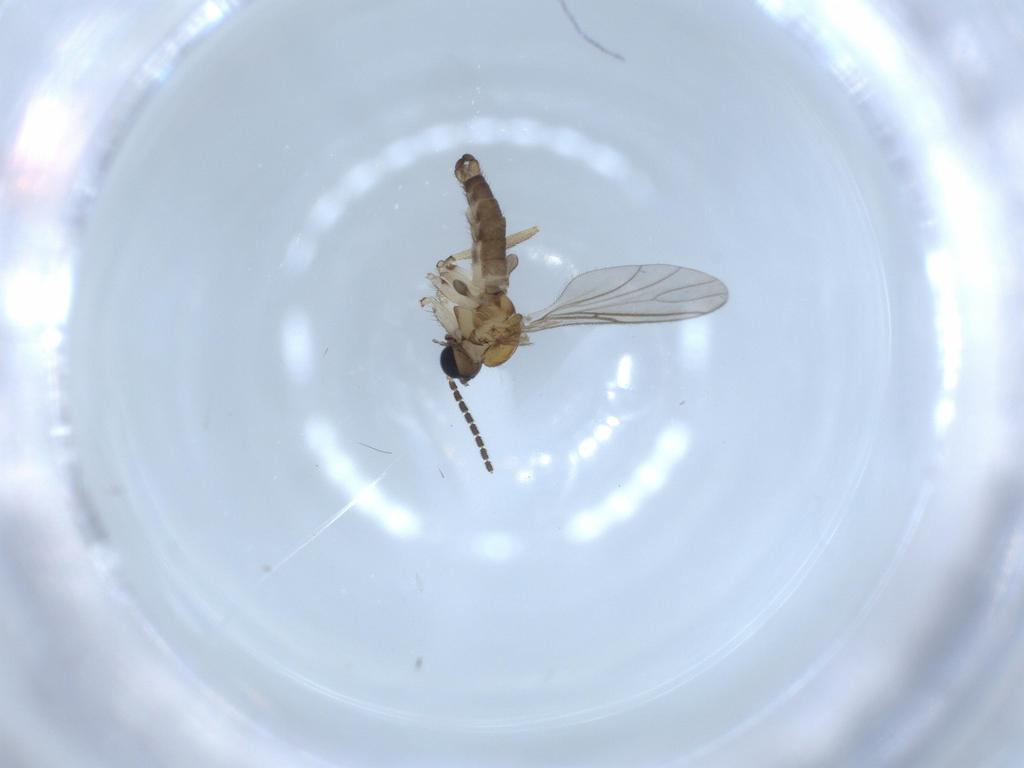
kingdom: Animalia
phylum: Arthropoda
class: Insecta
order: Diptera
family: Sciaridae
